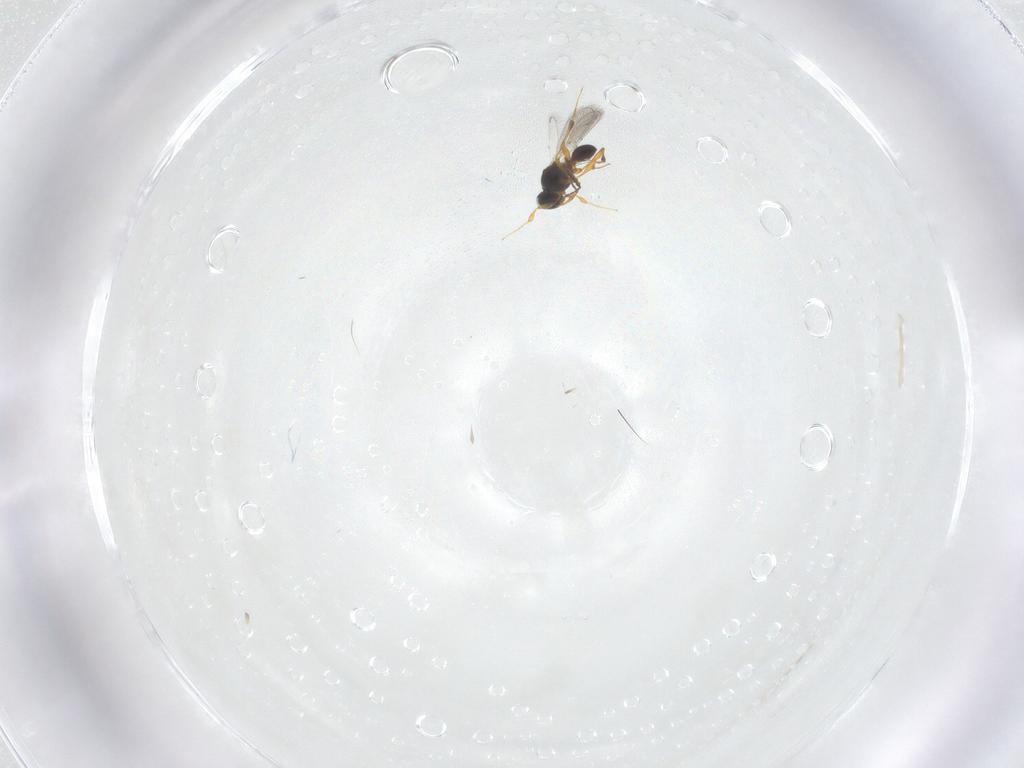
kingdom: Animalia
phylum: Arthropoda
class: Insecta
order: Hymenoptera
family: Platygastridae
